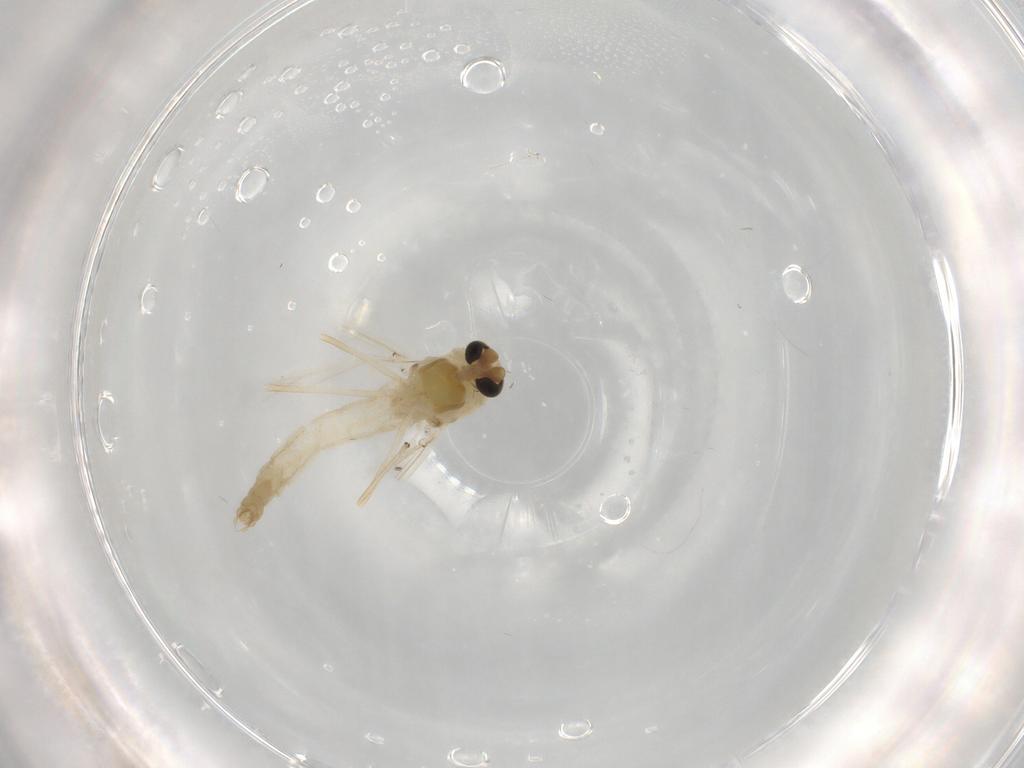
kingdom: Animalia
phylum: Arthropoda
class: Insecta
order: Diptera
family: Chironomidae
